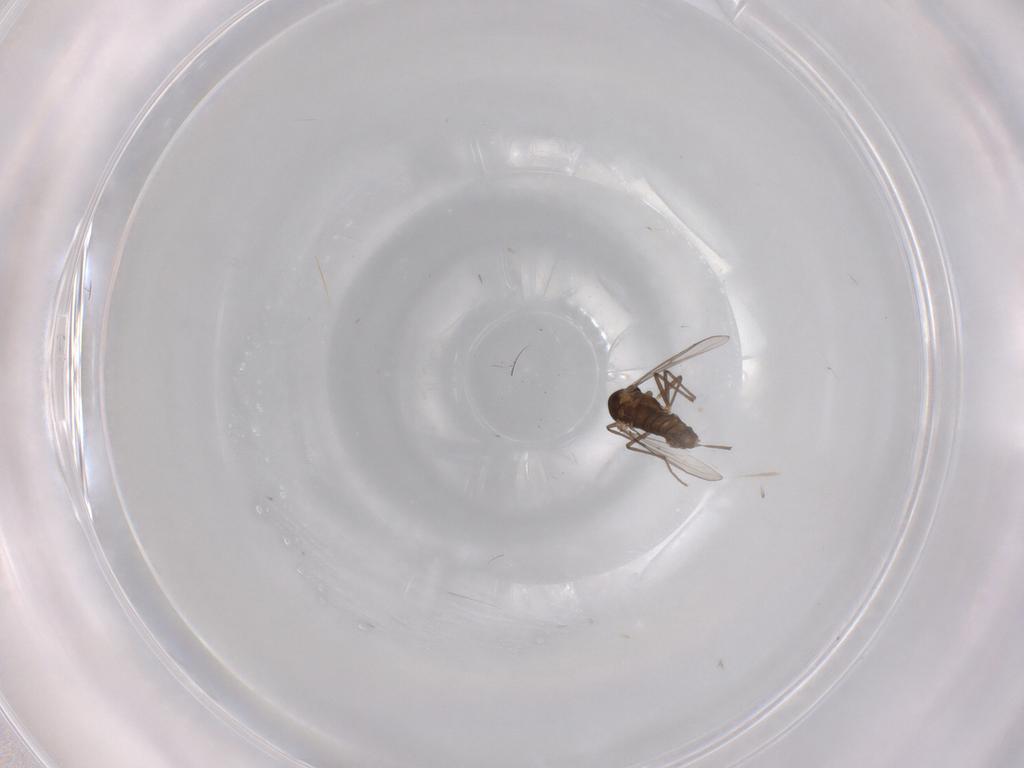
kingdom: Animalia
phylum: Arthropoda
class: Insecta
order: Diptera
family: Chironomidae
